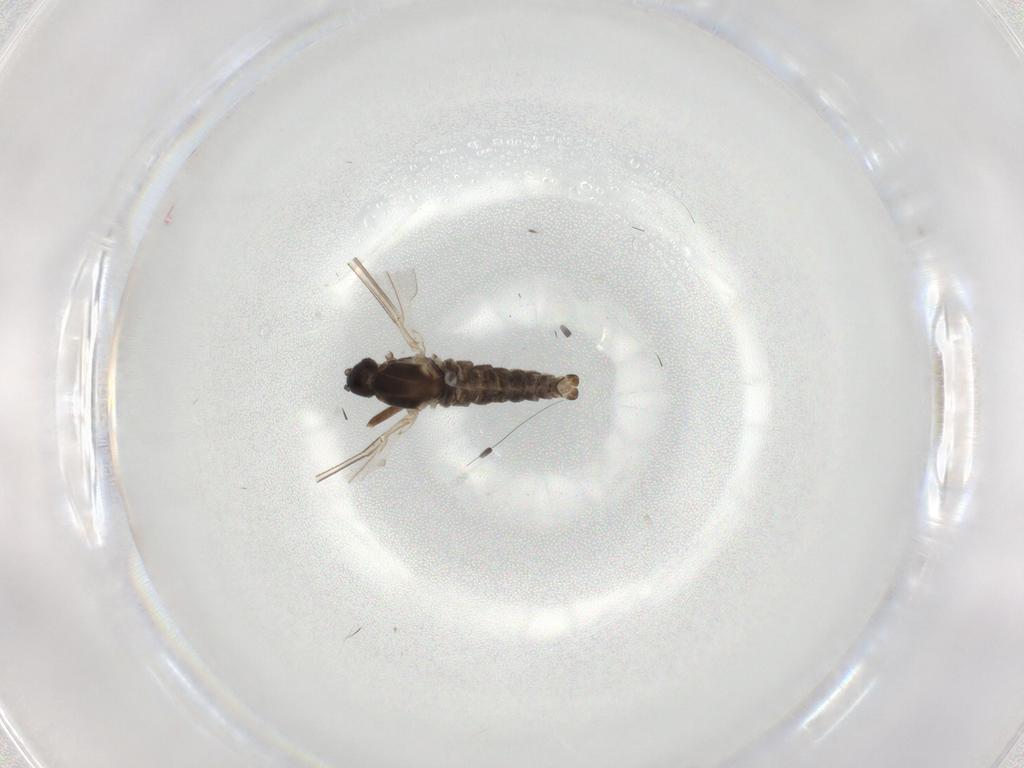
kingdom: Animalia
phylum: Arthropoda
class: Insecta
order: Diptera
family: Cecidomyiidae
